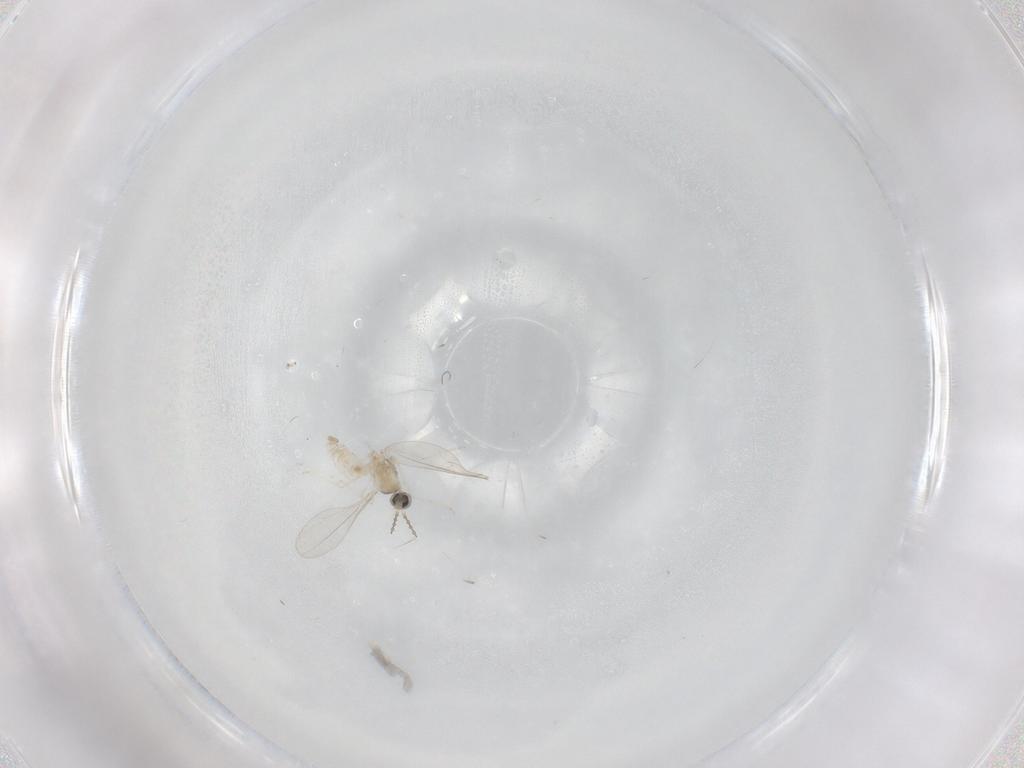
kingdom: Animalia
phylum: Arthropoda
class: Insecta
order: Diptera
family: Cecidomyiidae
